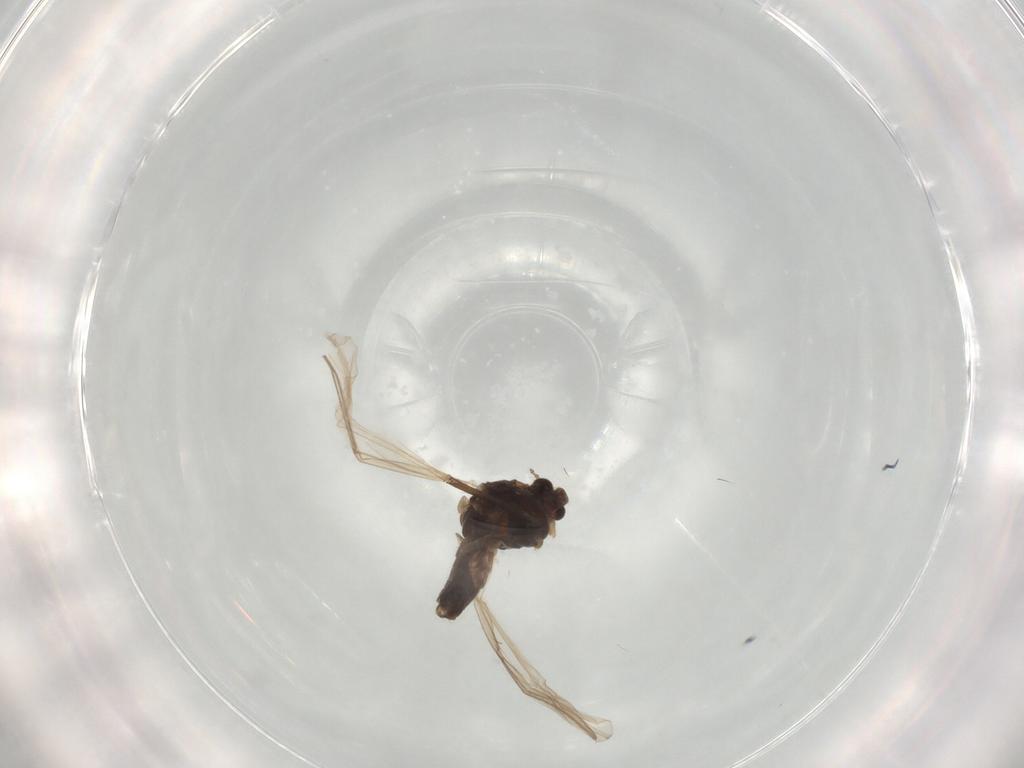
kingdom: Animalia
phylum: Arthropoda
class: Insecta
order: Diptera
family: Chironomidae
